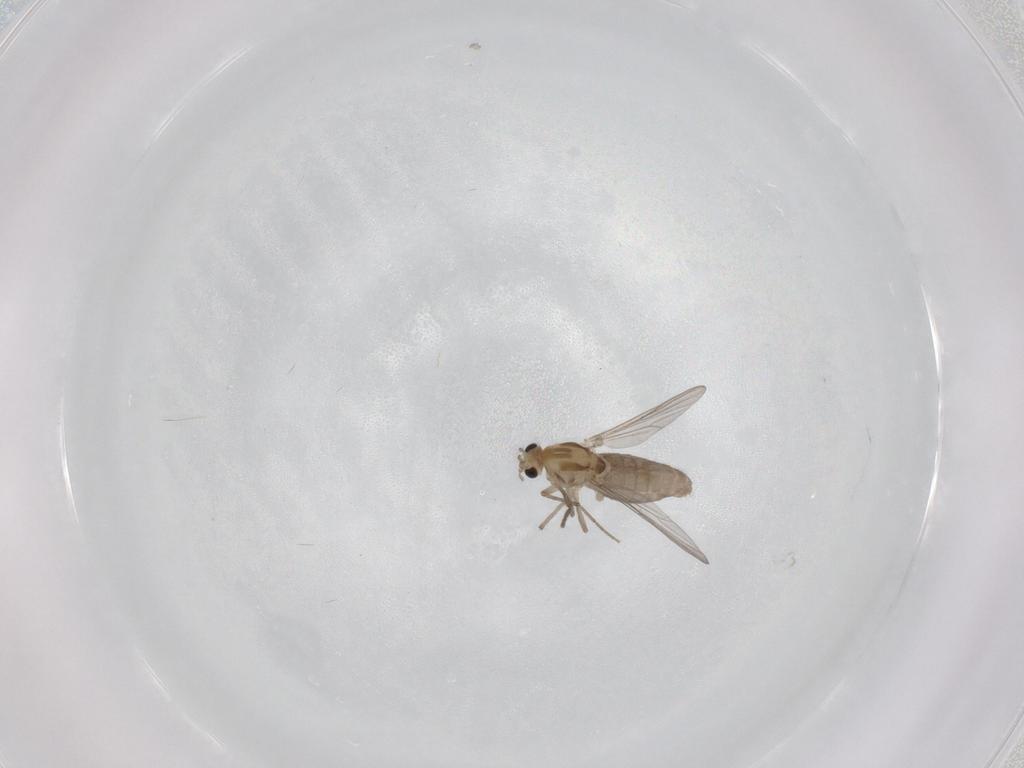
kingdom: Animalia
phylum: Arthropoda
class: Insecta
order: Diptera
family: Chironomidae
